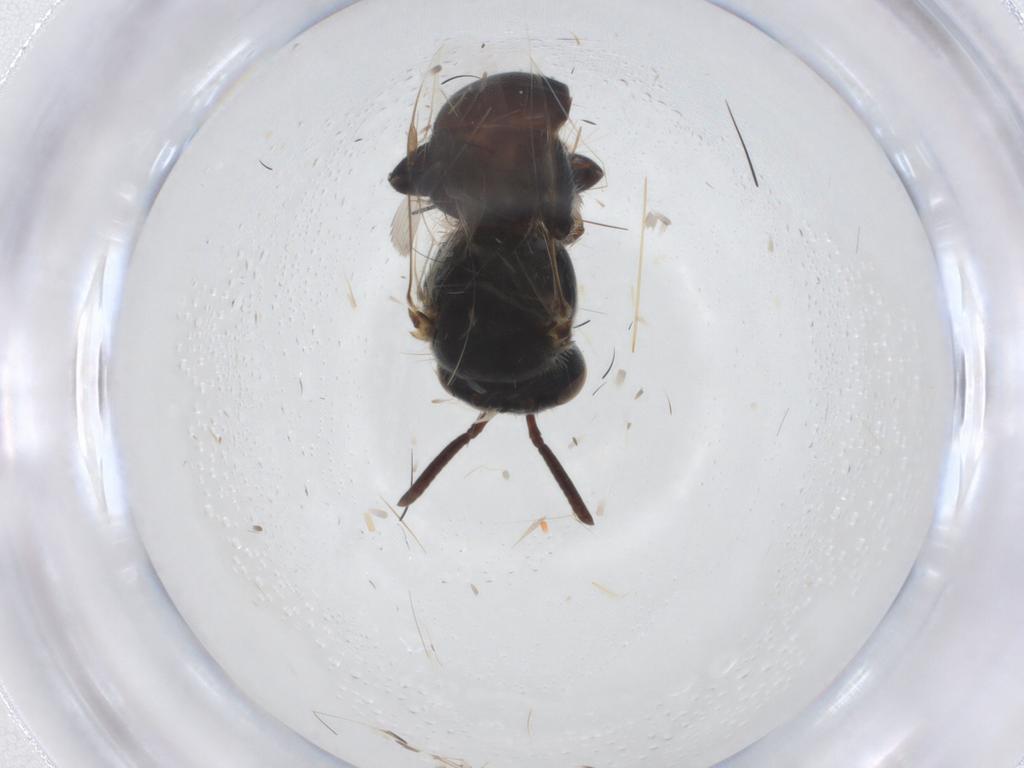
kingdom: Animalia
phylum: Arthropoda
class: Insecta
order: Hymenoptera
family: Apidae
